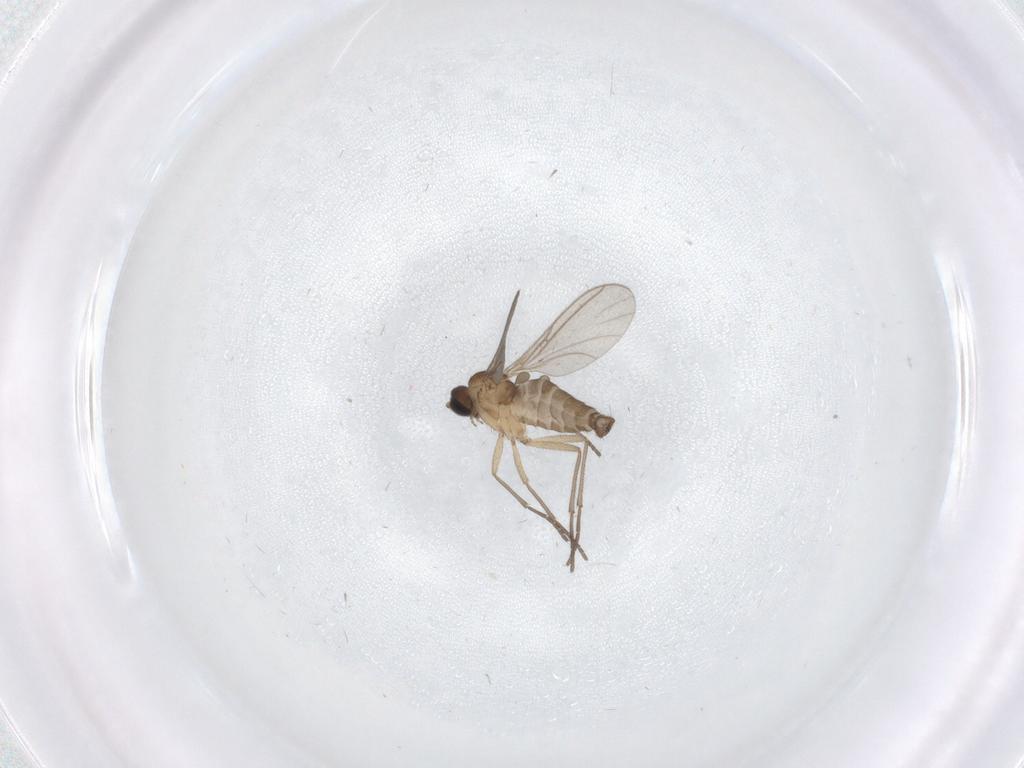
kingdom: Animalia
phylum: Arthropoda
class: Insecta
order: Diptera
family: Sciaridae
